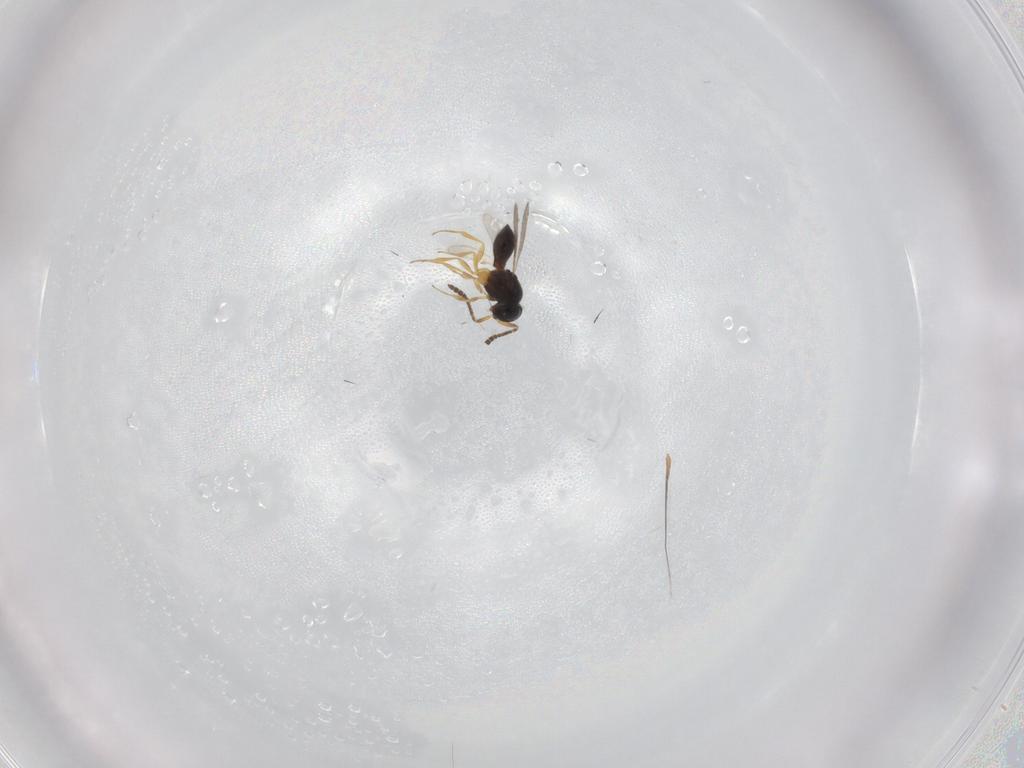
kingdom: Animalia
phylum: Arthropoda
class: Insecta
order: Hymenoptera
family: Scelionidae
